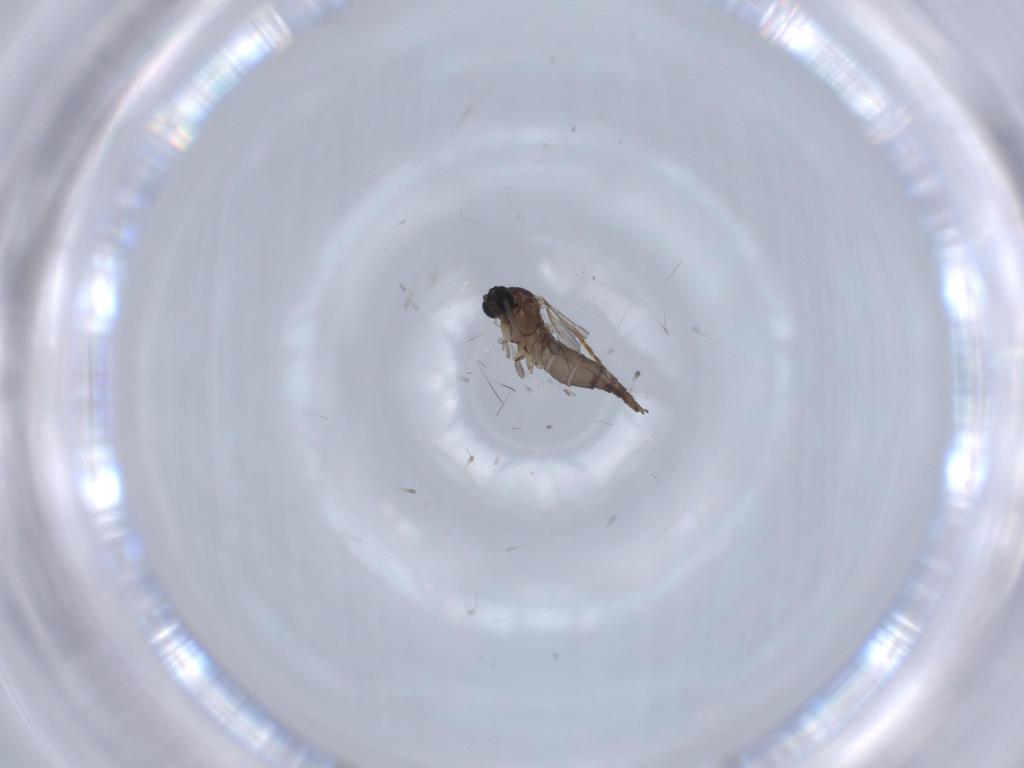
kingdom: Animalia
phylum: Arthropoda
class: Insecta
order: Diptera
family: Sciaridae
